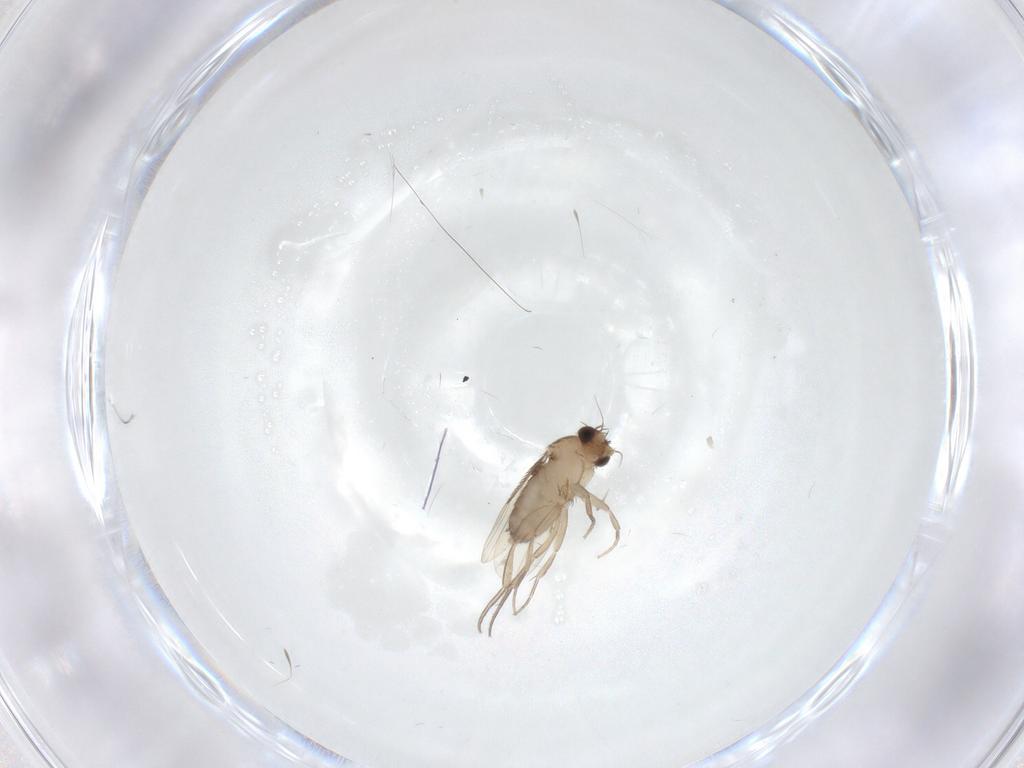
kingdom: Animalia
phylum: Arthropoda
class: Insecta
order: Diptera
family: Phoridae
